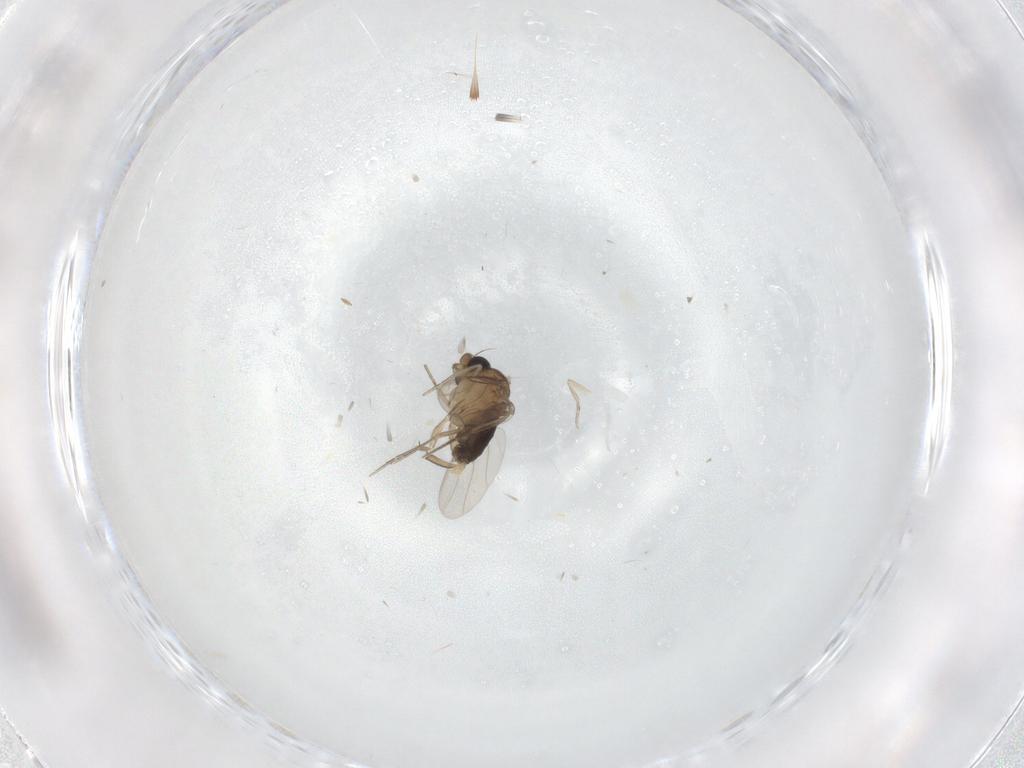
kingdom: Animalia
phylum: Arthropoda
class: Insecta
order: Diptera
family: Phoridae
